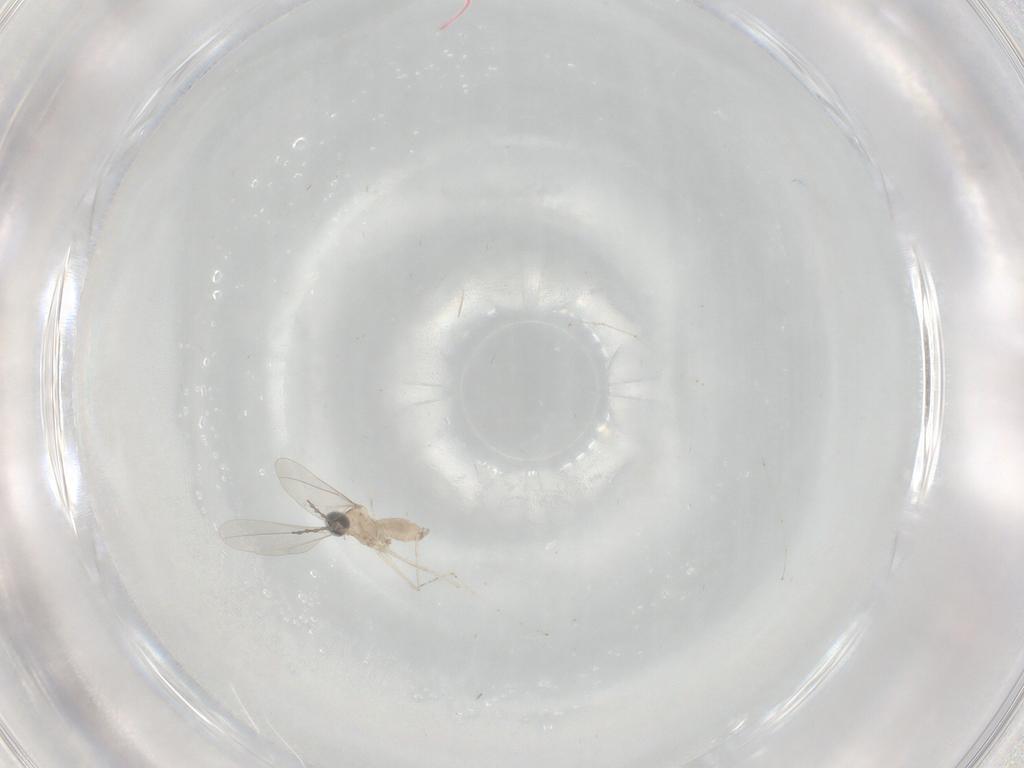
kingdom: Animalia
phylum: Arthropoda
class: Insecta
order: Diptera
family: Cecidomyiidae
